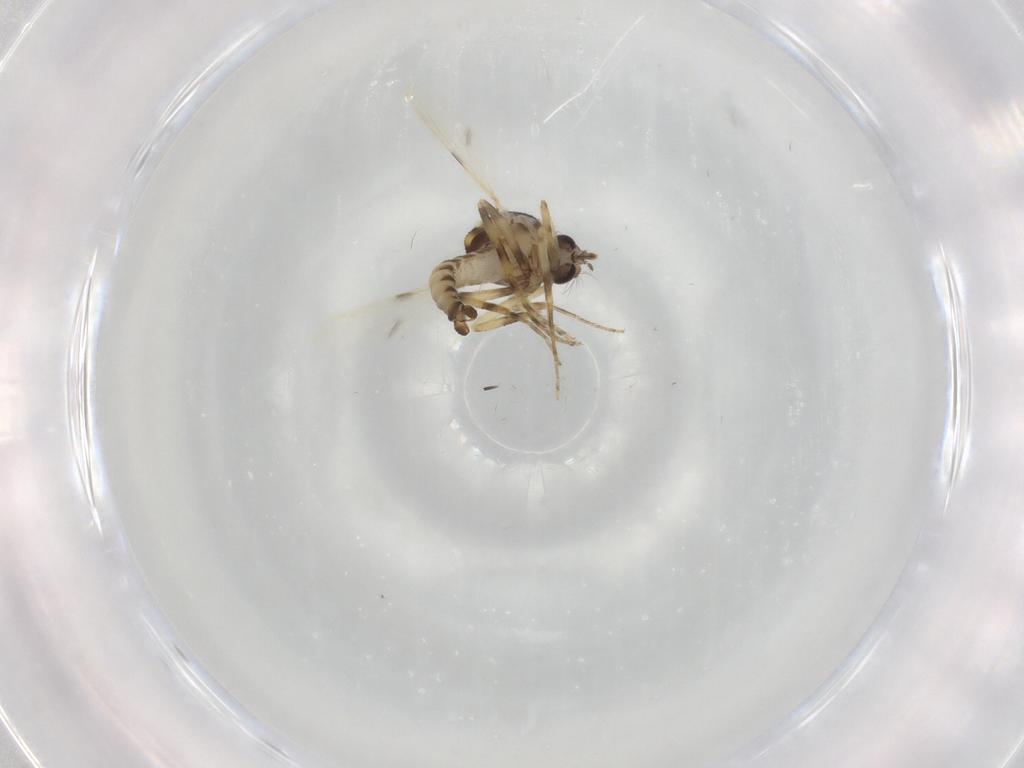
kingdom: Animalia
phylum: Arthropoda
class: Insecta
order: Diptera
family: Ceratopogonidae
